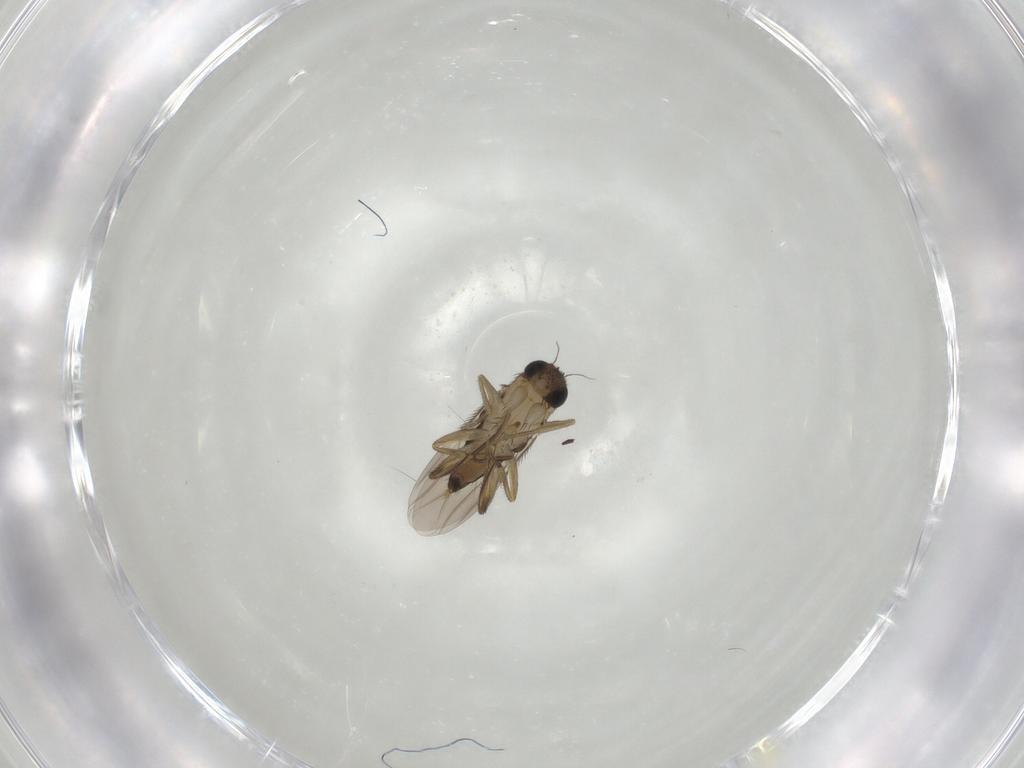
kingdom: Animalia
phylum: Arthropoda
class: Insecta
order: Diptera
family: Phoridae
